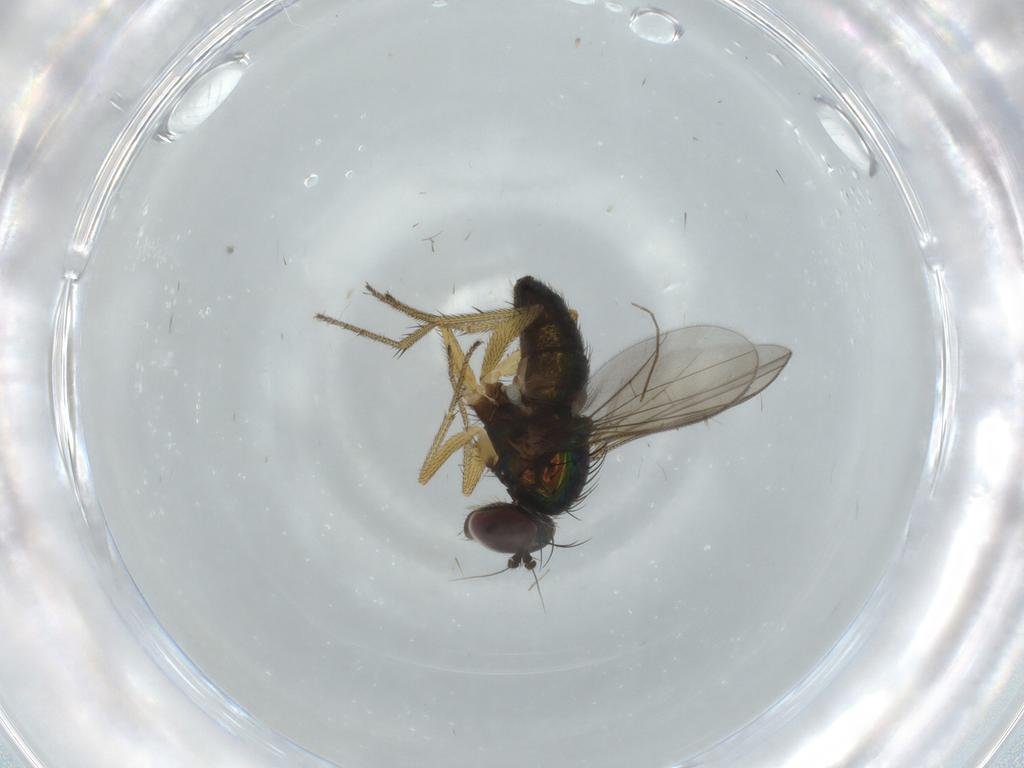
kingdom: Animalia
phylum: Arthropoda
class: Insecta
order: Diptera
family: Dolichopodidae
